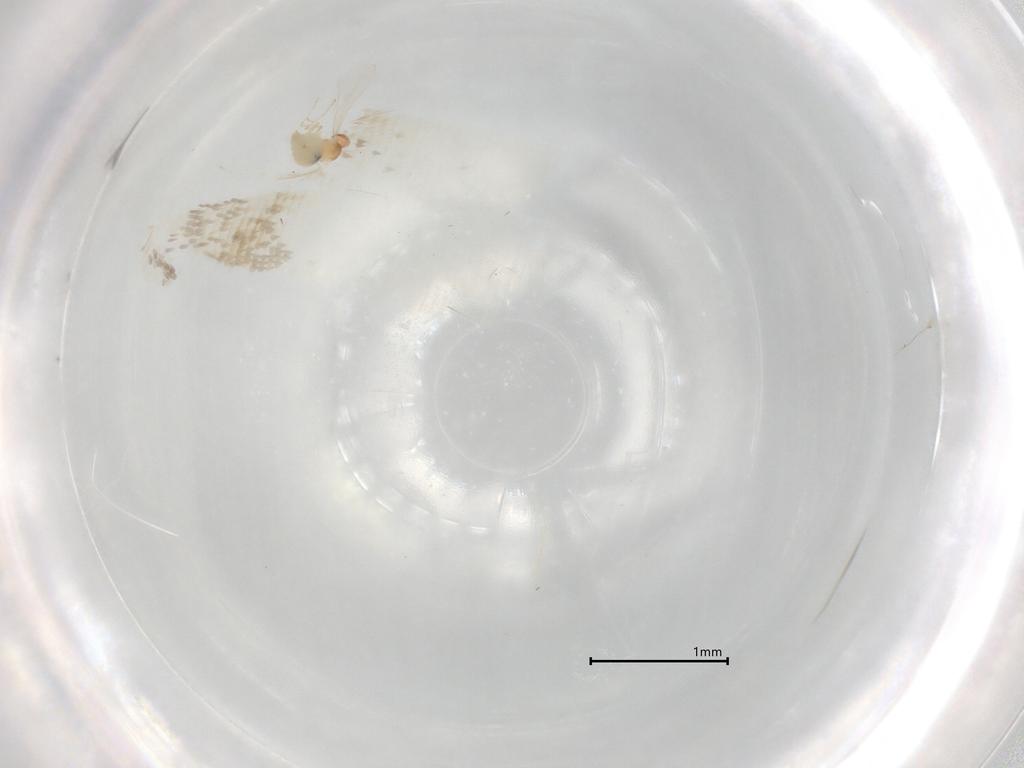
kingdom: Animalia
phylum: Arthropoda
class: Insecta
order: Diptera
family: Cecidomyiidae
